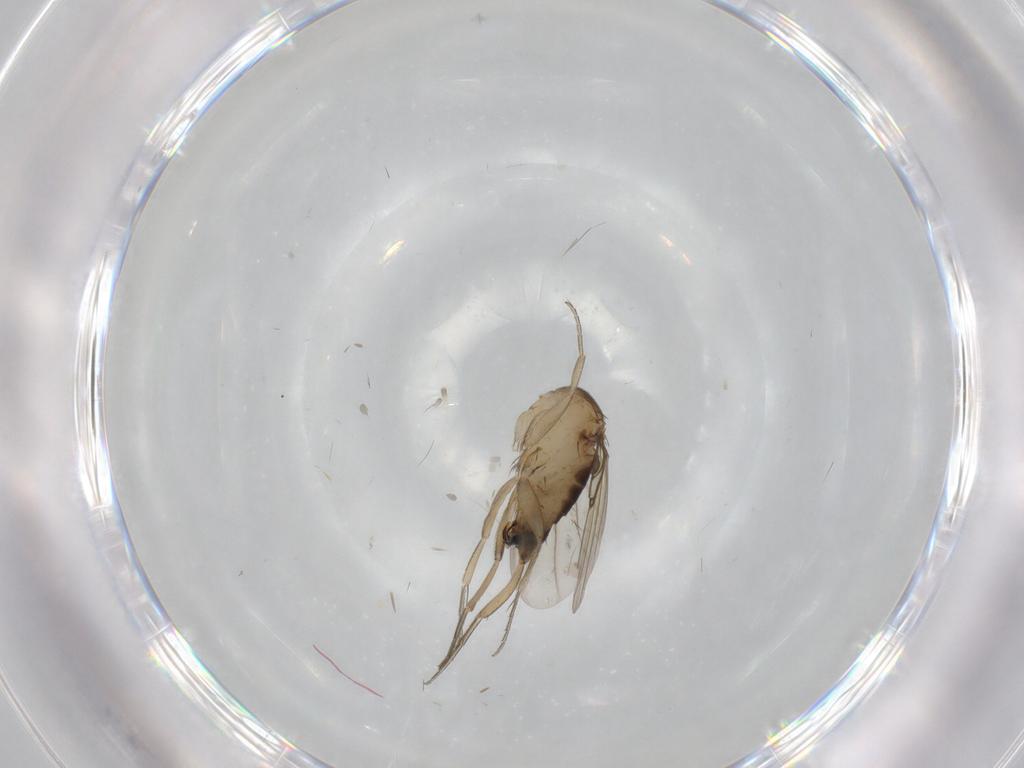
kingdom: Animalia
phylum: Arthropoda
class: Insecta
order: Diptera
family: Phoridae
